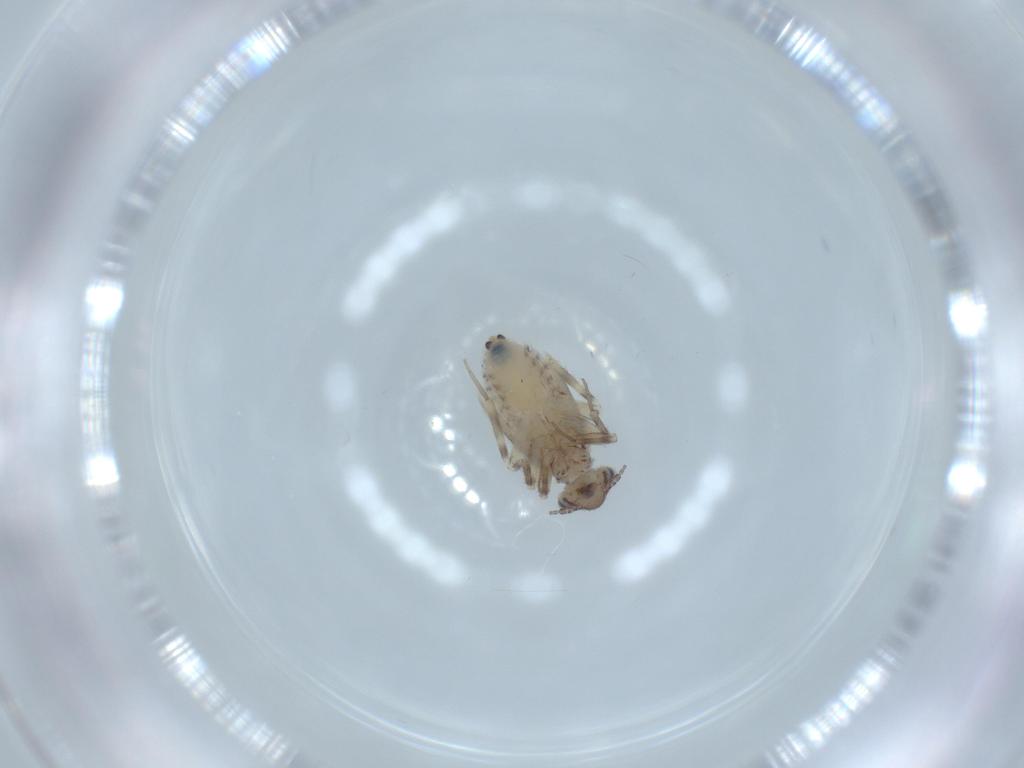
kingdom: Animalia
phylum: Arthropoda
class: Insecta
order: Psocodea
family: Lepidopsocidae
